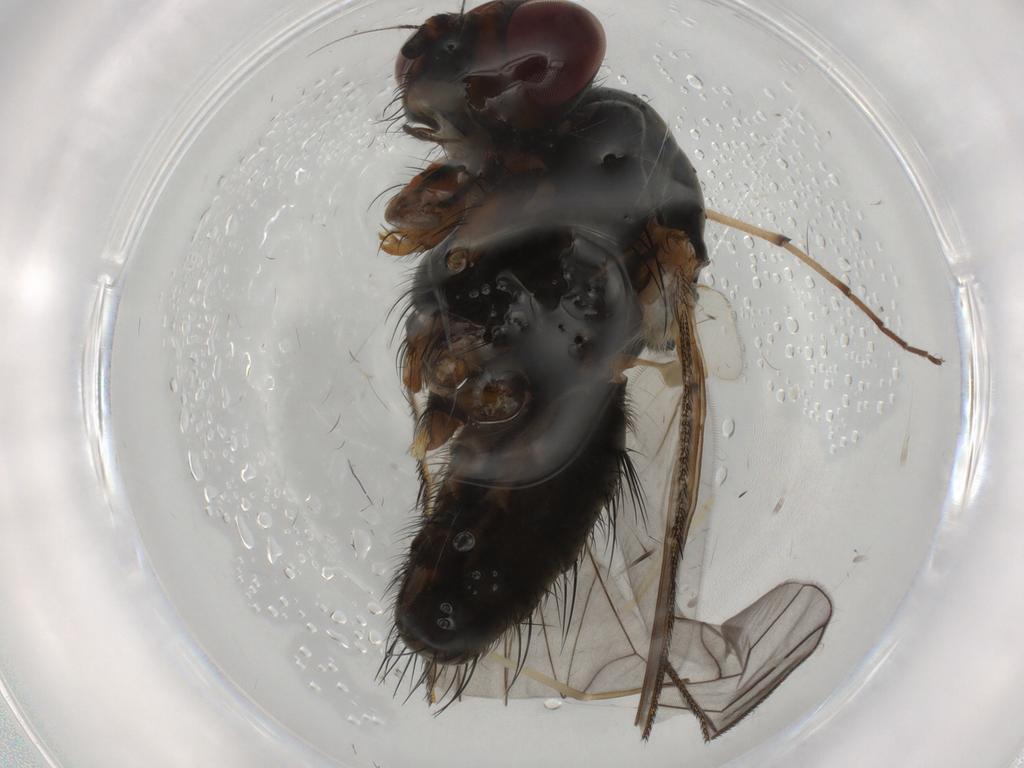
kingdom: Animalia
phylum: Arthropoda
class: Insecta
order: Diptera
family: Anthomyiidae
